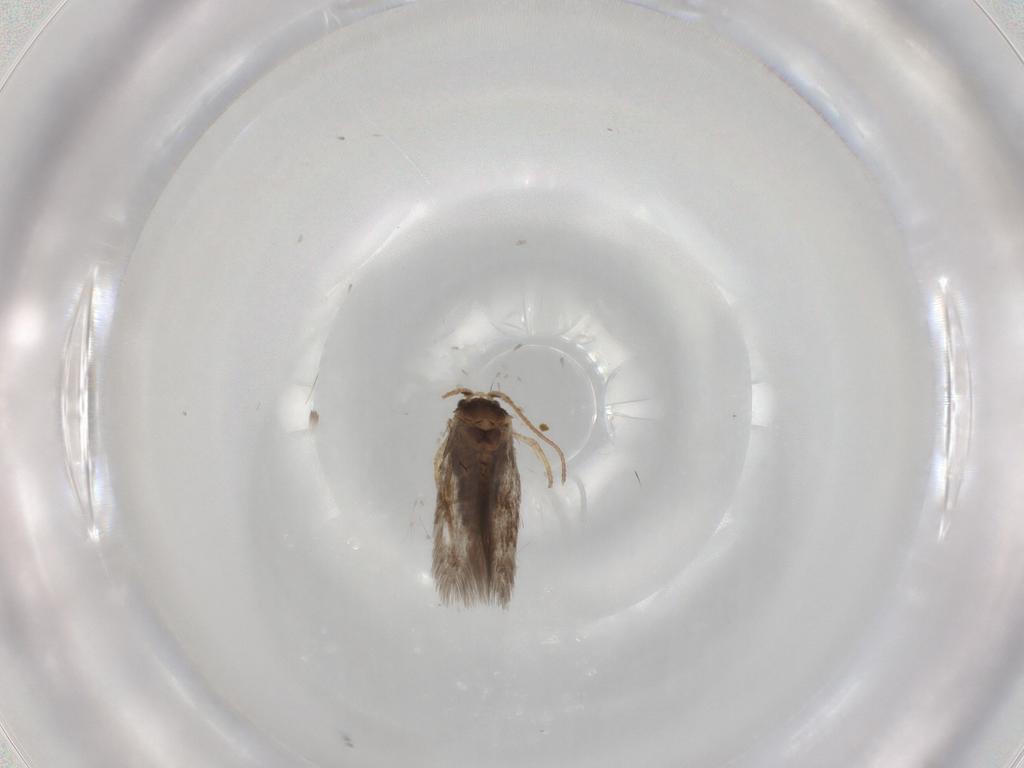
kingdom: Animalia
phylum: Arthropoda
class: Insecta
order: Lepidoptera
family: Nepticulidae
